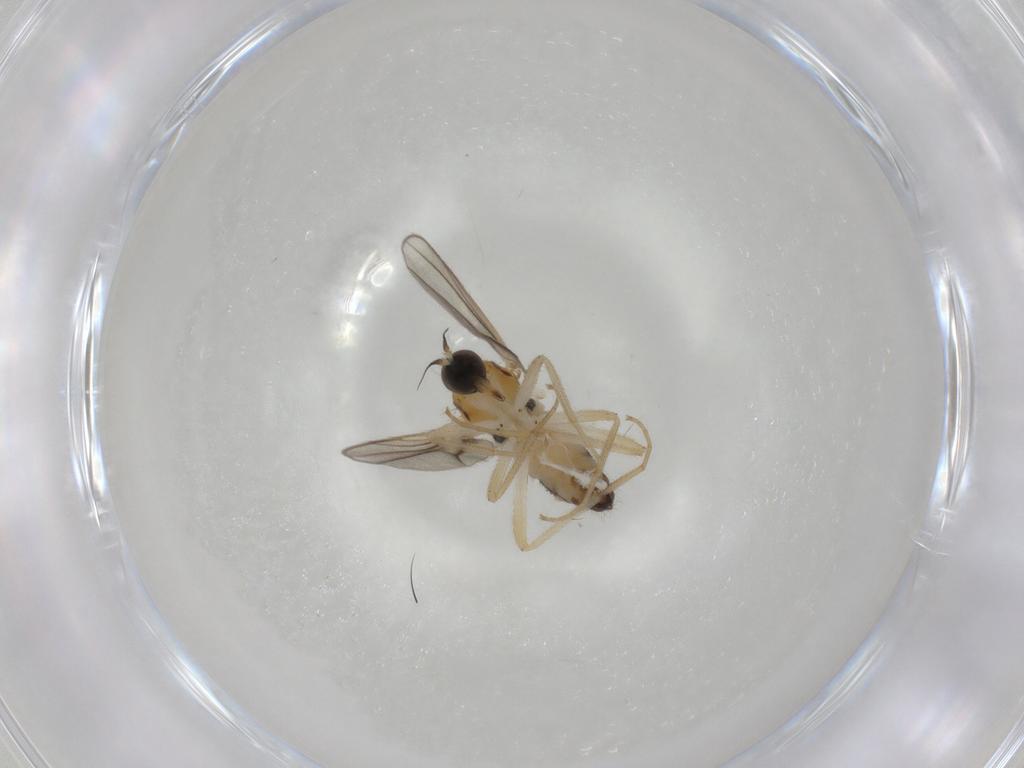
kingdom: Animalia
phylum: Arthropoda
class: Insecta
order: Diptera
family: Hybotidae
